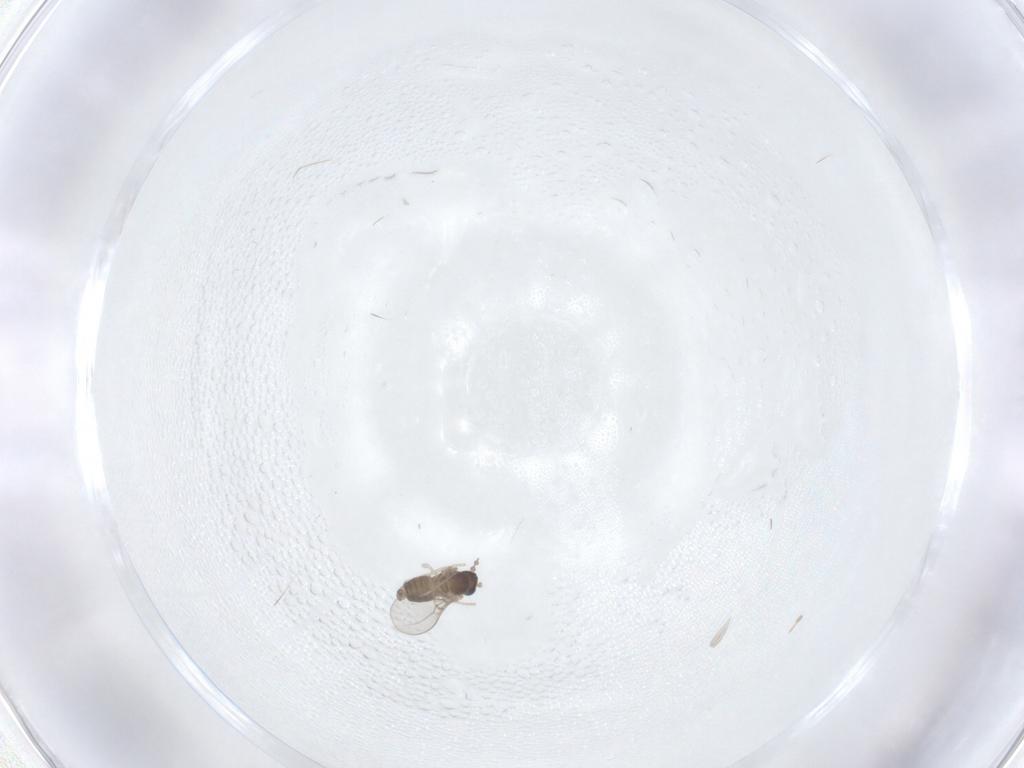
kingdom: Animalia
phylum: Arthropoda
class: Insecta
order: Diptera
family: Cecidomyiidae
